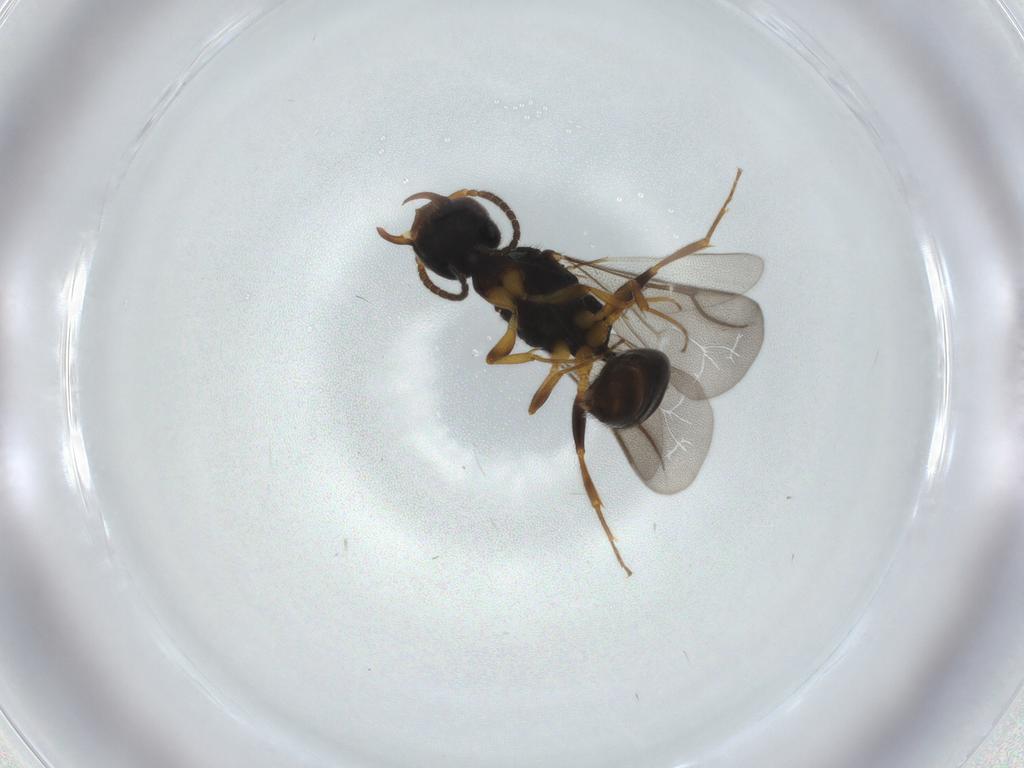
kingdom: Animalia
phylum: Arthropoda
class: Insecta
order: Hymenoptera
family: Bethylidae
